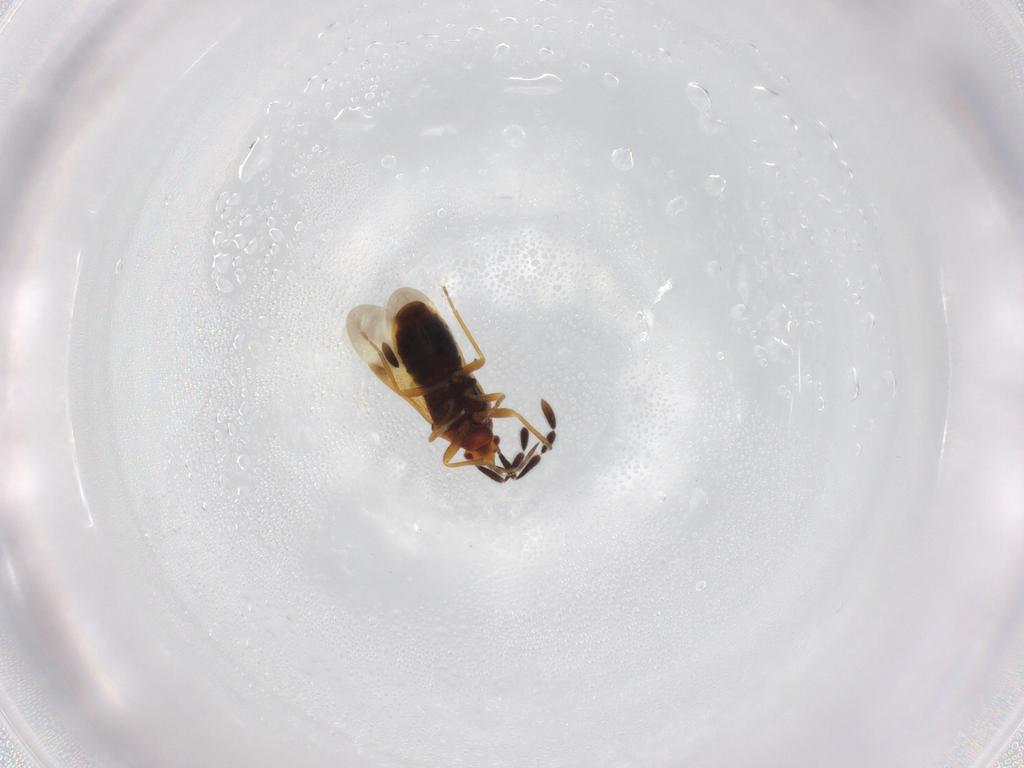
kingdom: Animalia
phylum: Arthropoda
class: Insecta
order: Hemiptera
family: Rhyparochromidae
